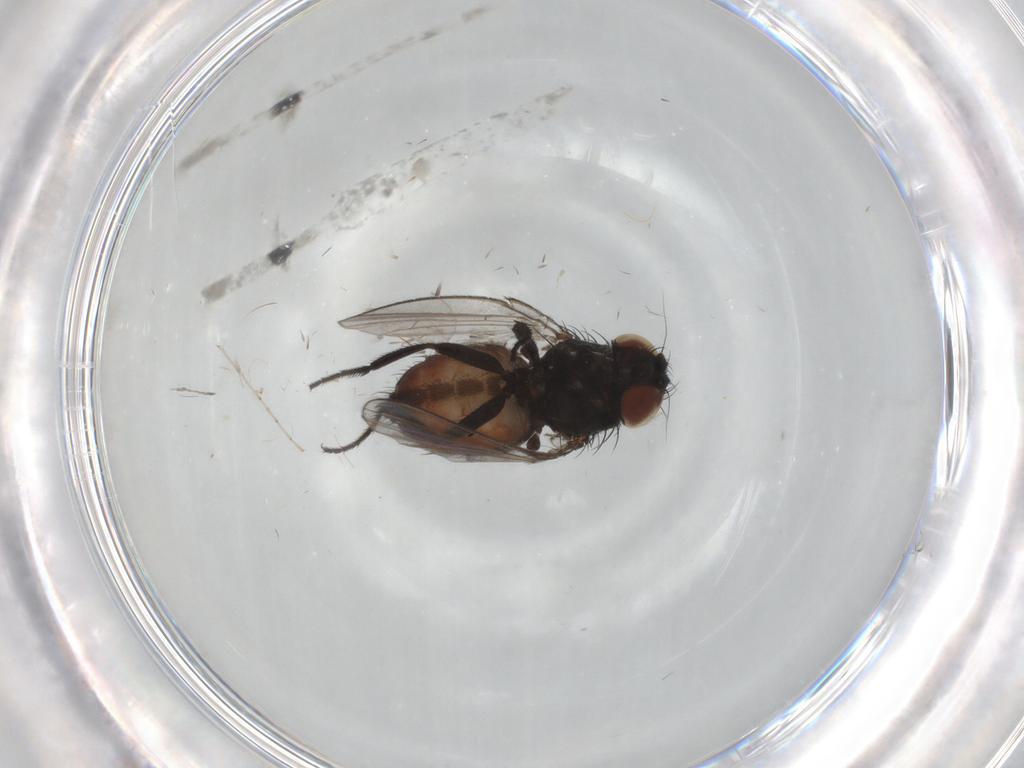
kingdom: Animalia
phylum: Arthropoda
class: Insecta
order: Diptera
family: Milichiidae
